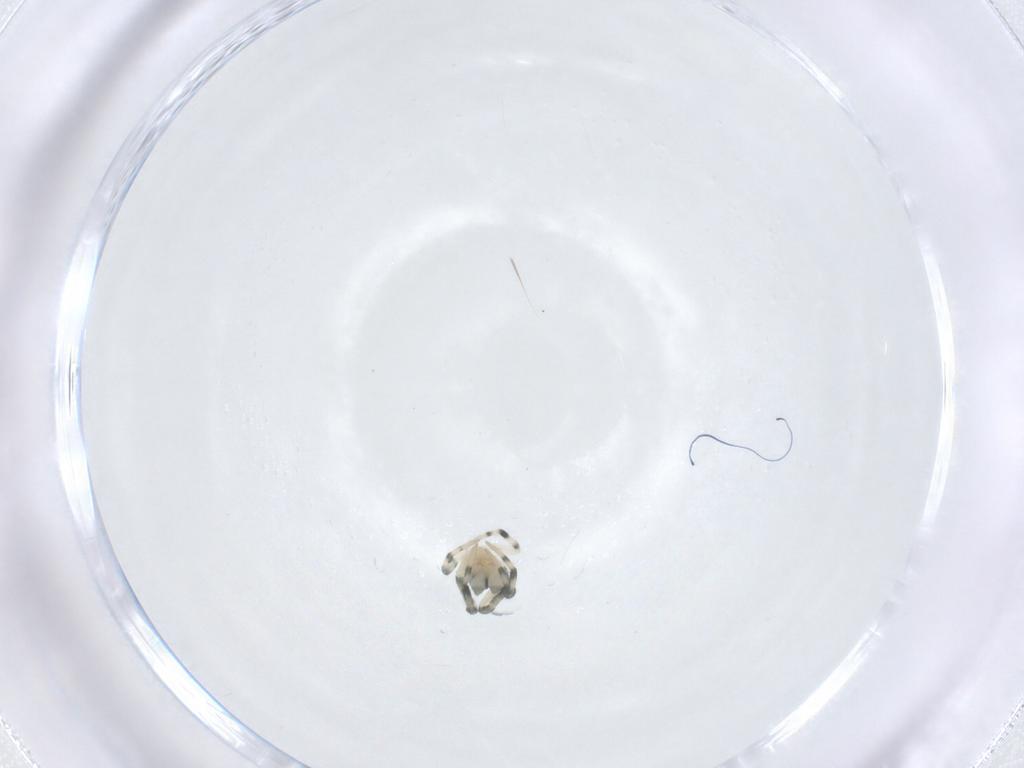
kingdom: Animalia
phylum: Arthropoda
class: Arachnida
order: Araneae
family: Mysmenidae
